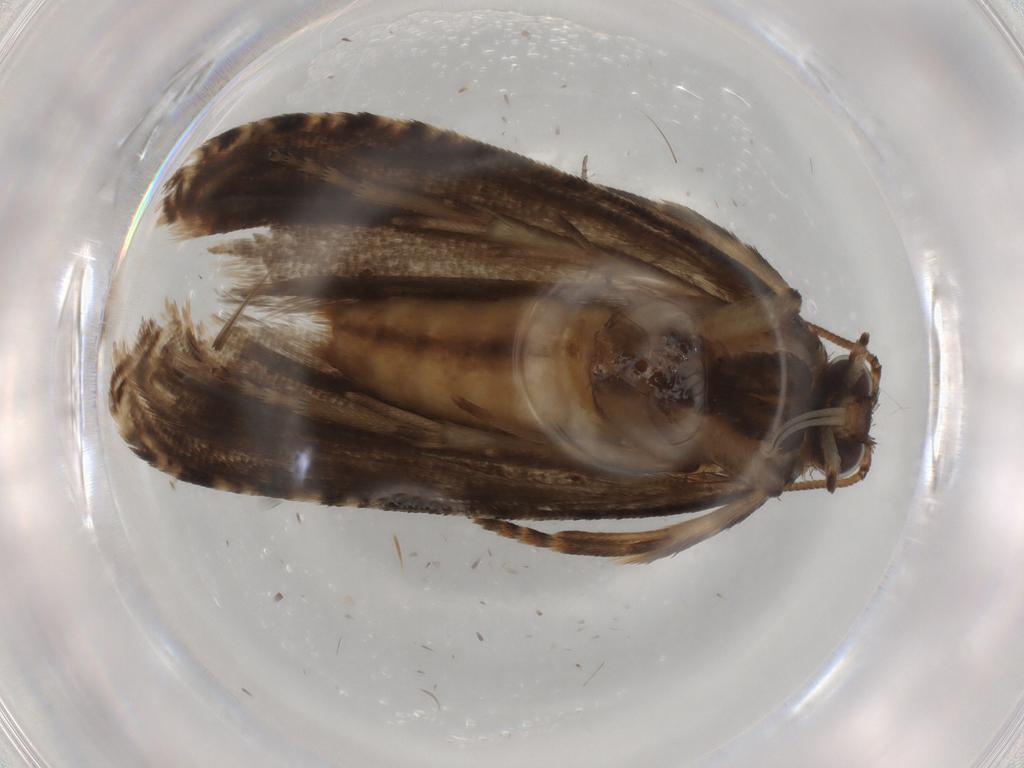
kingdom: Animalia
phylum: Arthropoda
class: Insecta
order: Lepidoptera
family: Tortricidae
